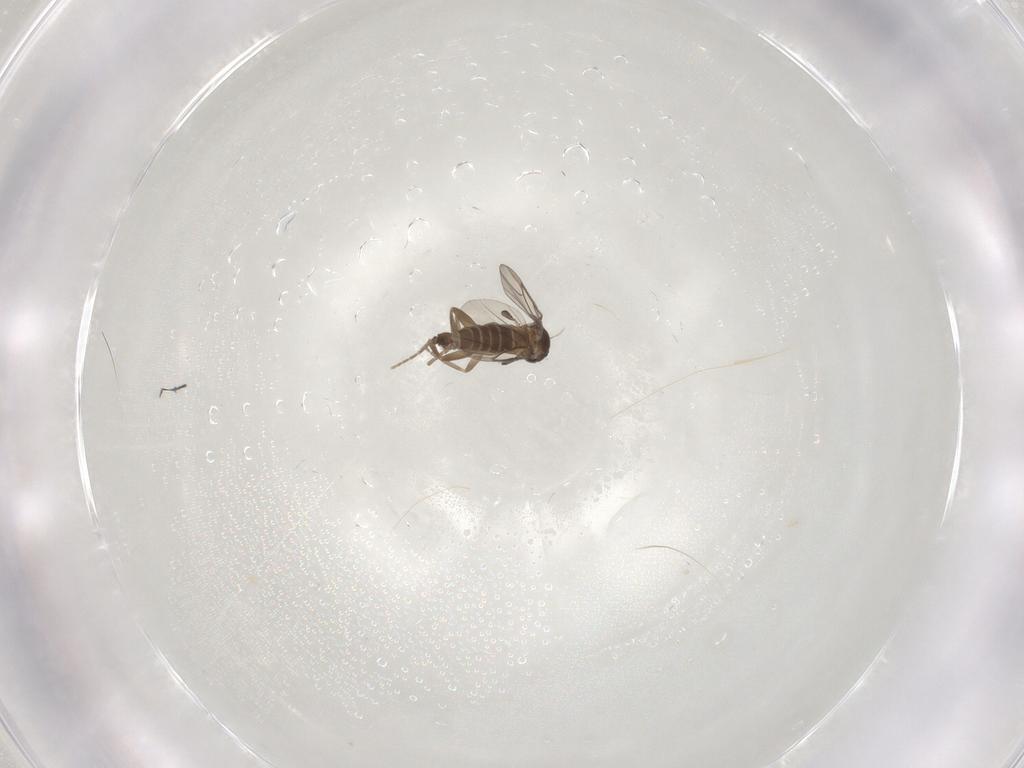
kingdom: Animalia
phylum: Arthropoda
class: Insecta
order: Diptera
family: Phoridae
